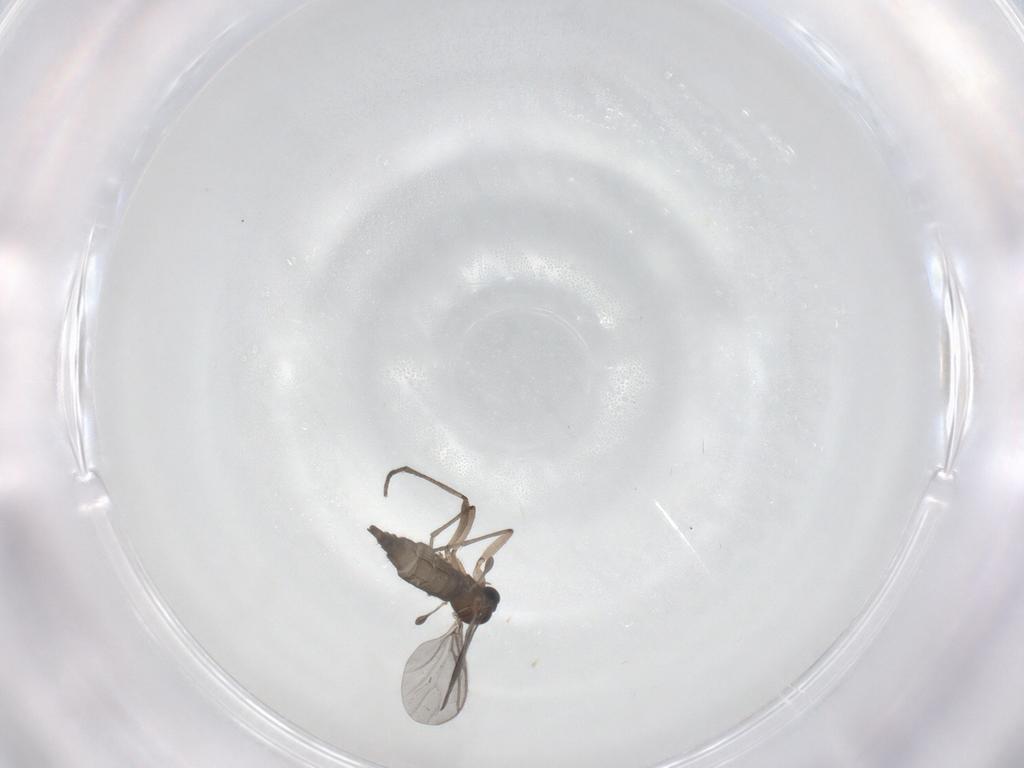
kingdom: Animalia
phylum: Arthropoda
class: Insecta
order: Diptera
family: Sciaridae
